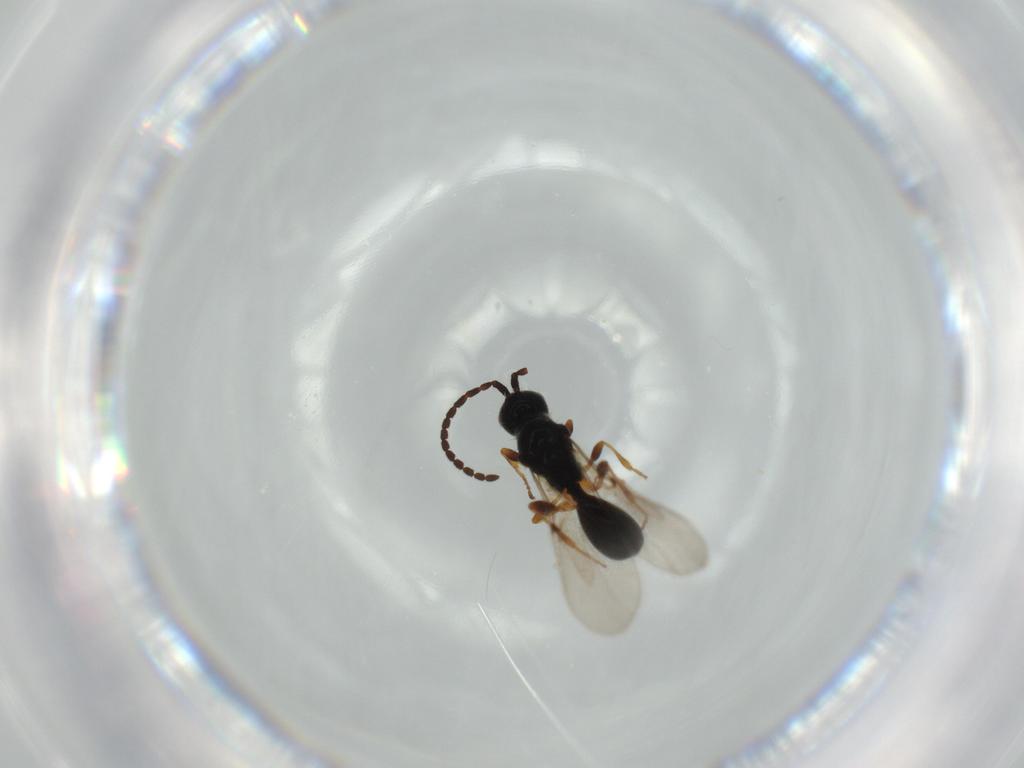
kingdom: Animalia
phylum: Arthropoda
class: Insecta
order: Hymenoptera
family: Diapriidae
